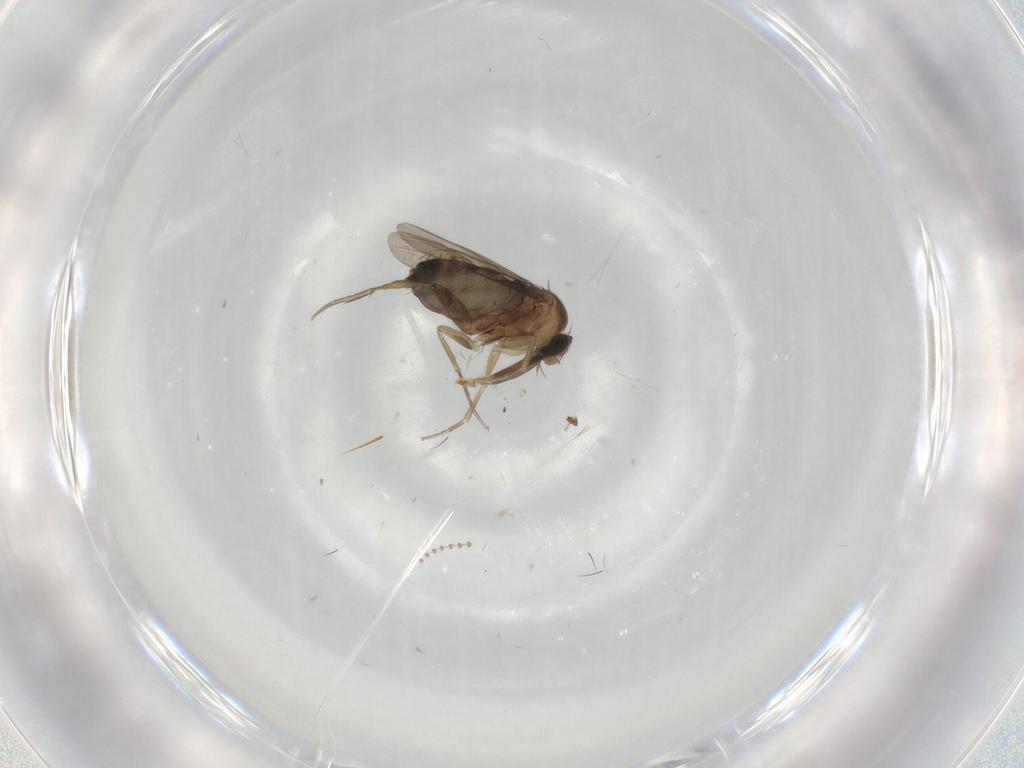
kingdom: Animalia
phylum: Arthropoda
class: Insecta
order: Diptera
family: Phoridae
